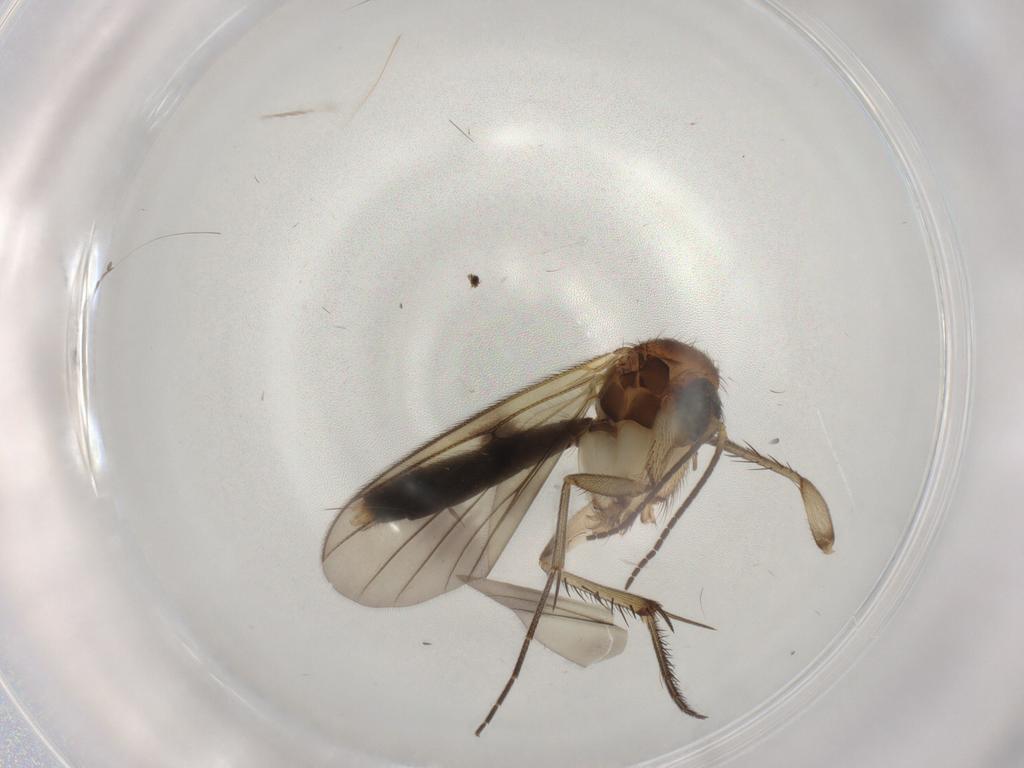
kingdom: Animalia
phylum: Arthropoda
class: Insecta
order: Diptera
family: Mycetophilidae
